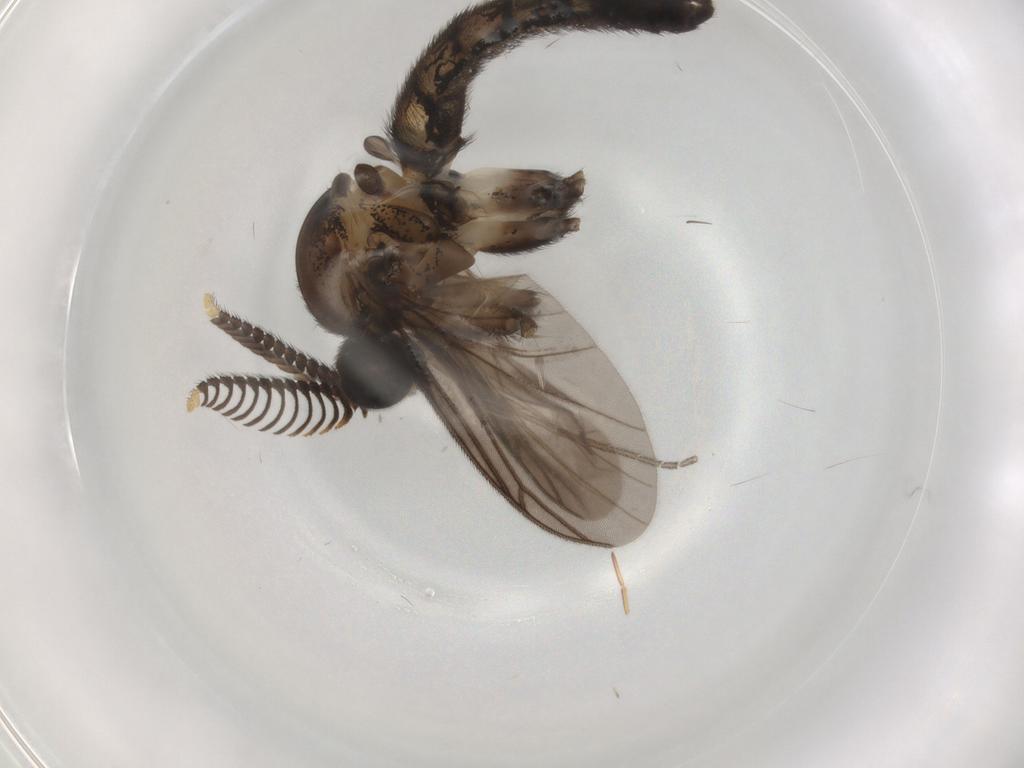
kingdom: Animalia
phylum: Arthropoda
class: Insecta
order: Diptera
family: Keroplatidae
